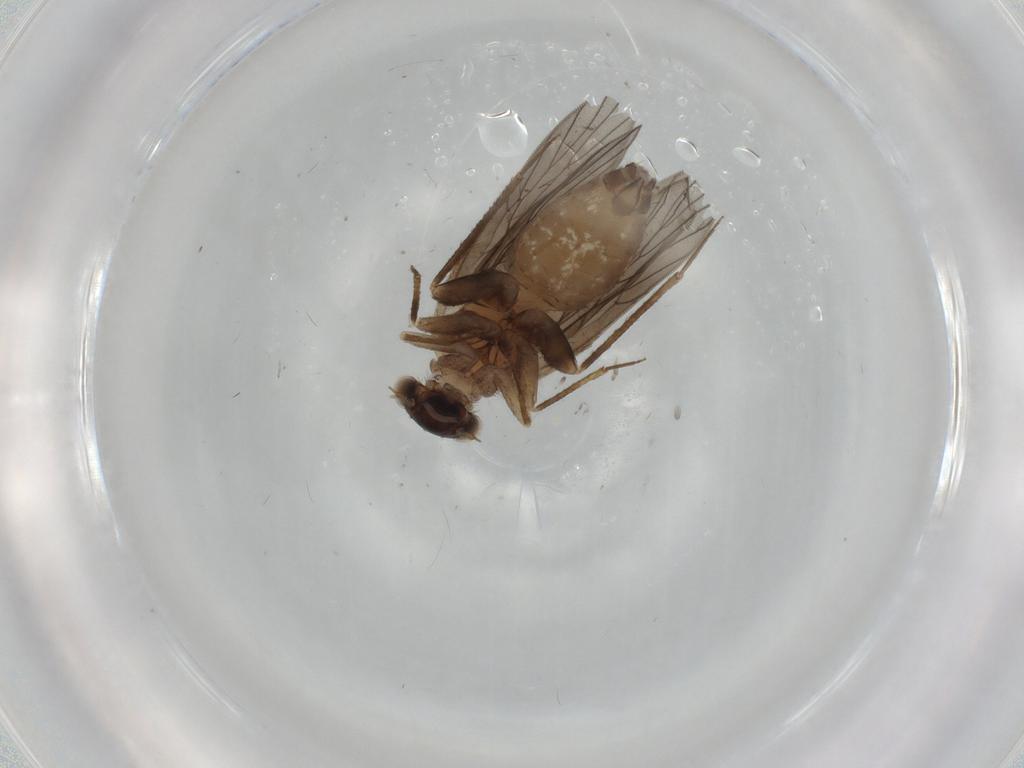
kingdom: Animalia
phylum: Arthropoda
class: Insecta
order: Psocodea
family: Lepidopsocidae
